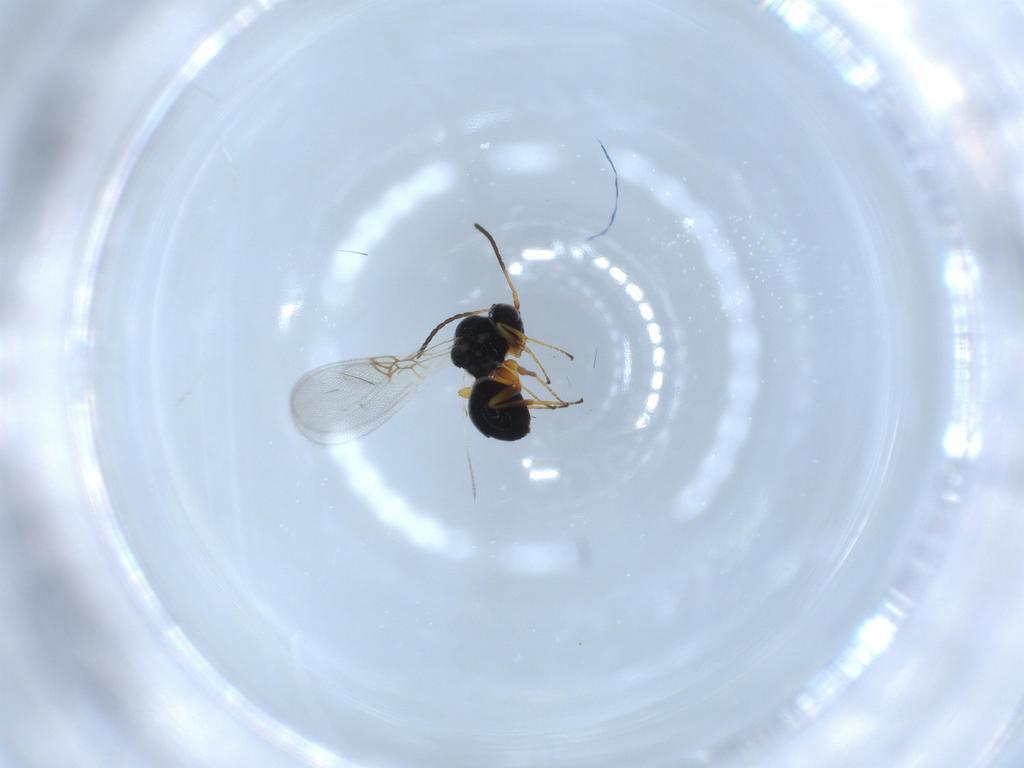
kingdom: Animalia
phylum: Arthropoda
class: Insecta
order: Hymenoptera
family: Figitidae
